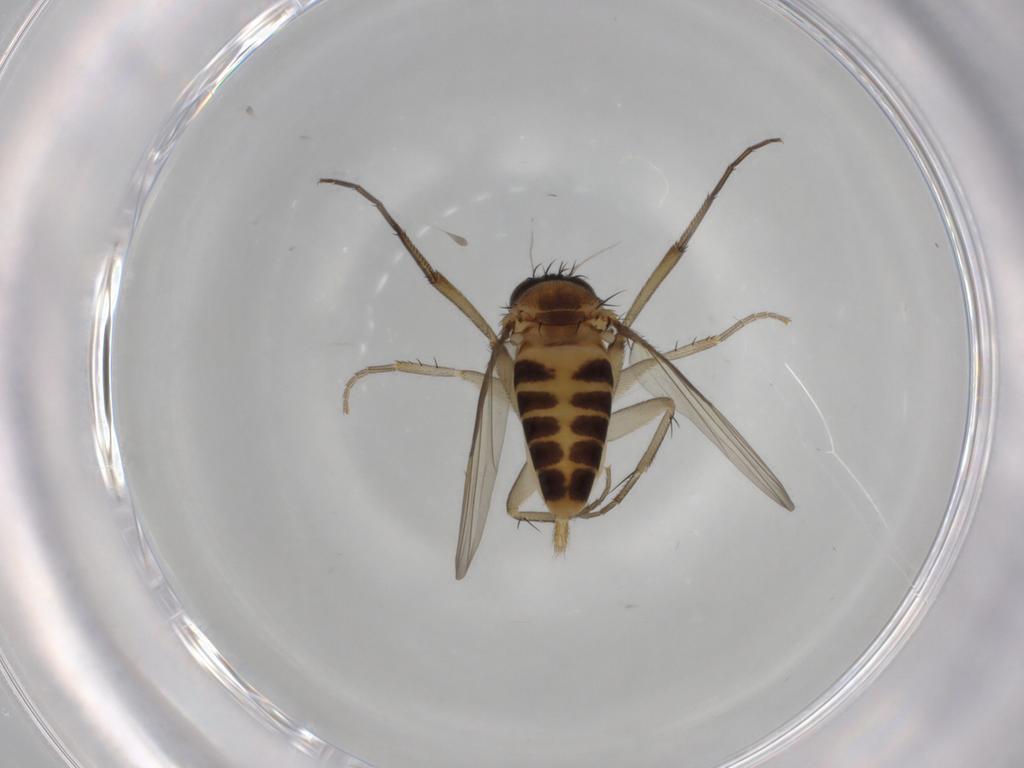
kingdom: Animalia
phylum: Arthropoda
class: Insecta
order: Diptera
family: Phoridae
